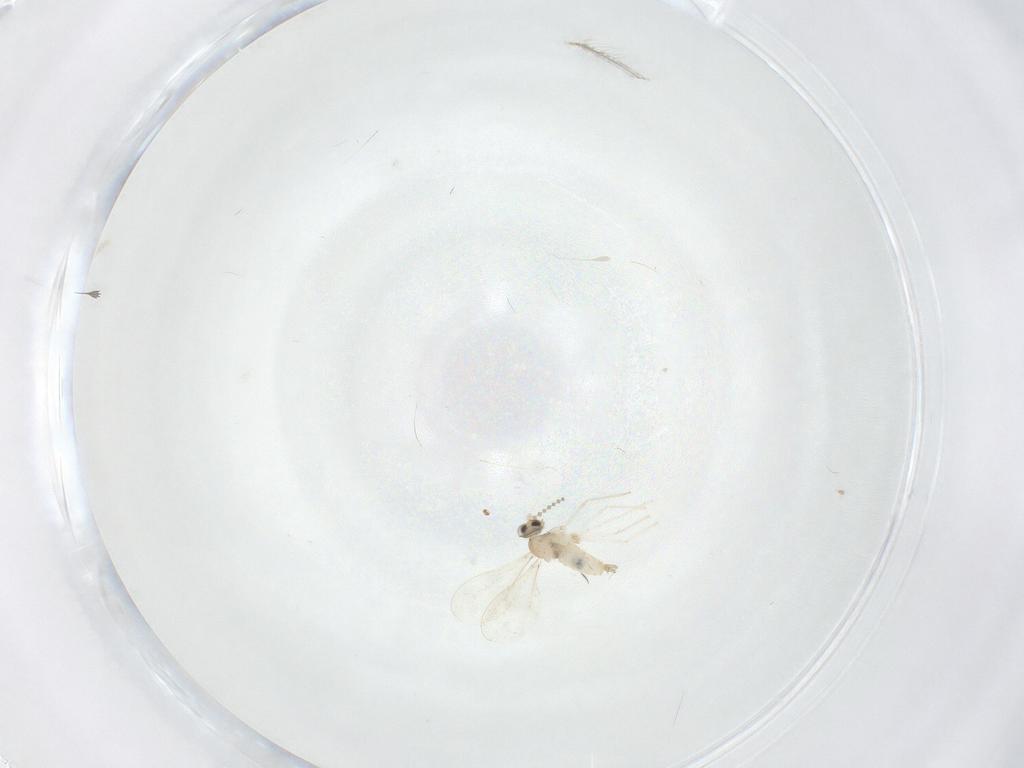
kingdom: Animalia
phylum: Arthropoda
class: Insecta
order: Diptera
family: Cecidomyiidae
